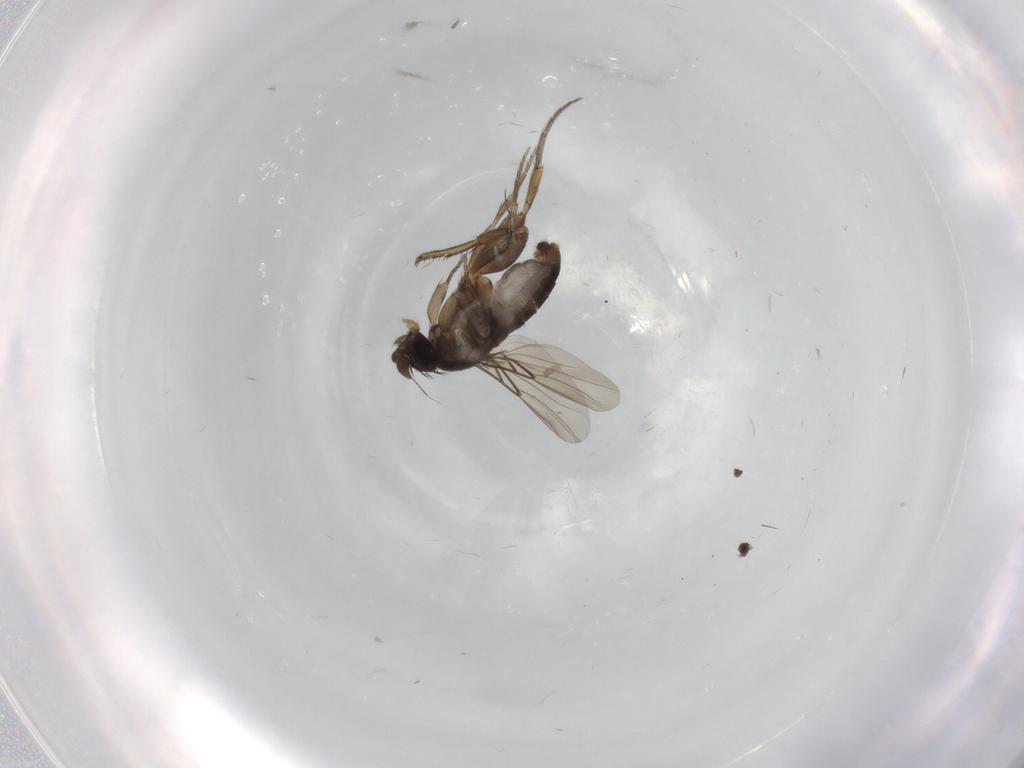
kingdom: Animalia
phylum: Arthropoda
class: Insecta
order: Diptera
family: Phoridae
